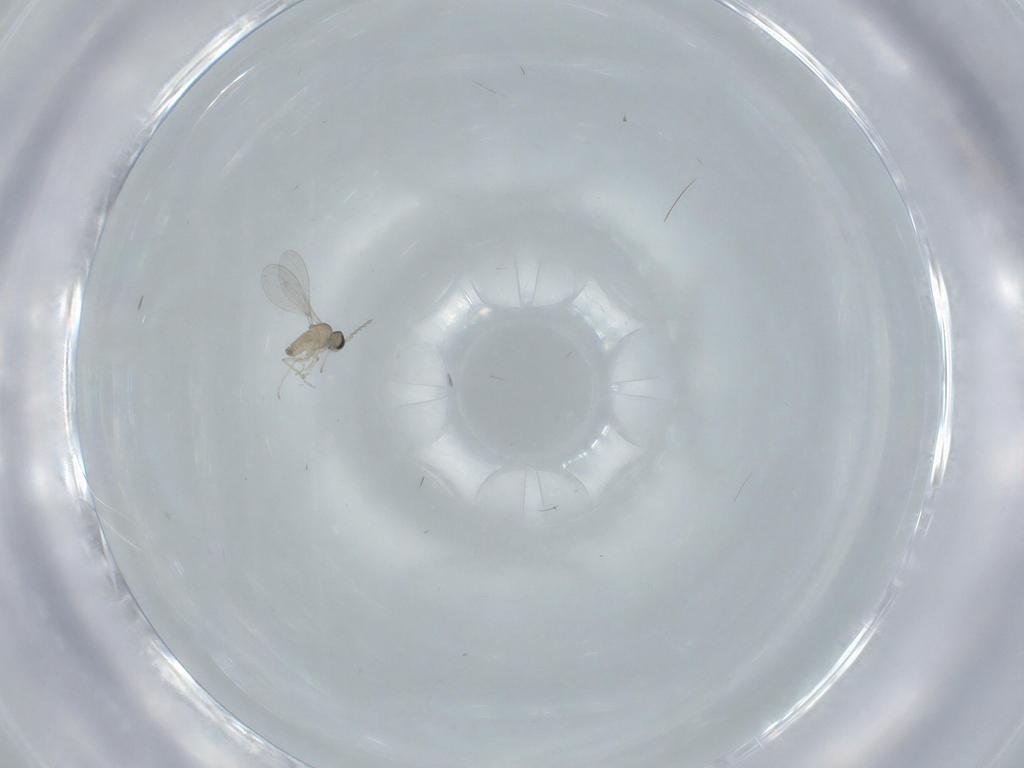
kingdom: Animalia
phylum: Arthropoda
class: Insecta
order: Diptera
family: Cecidomyiidae
